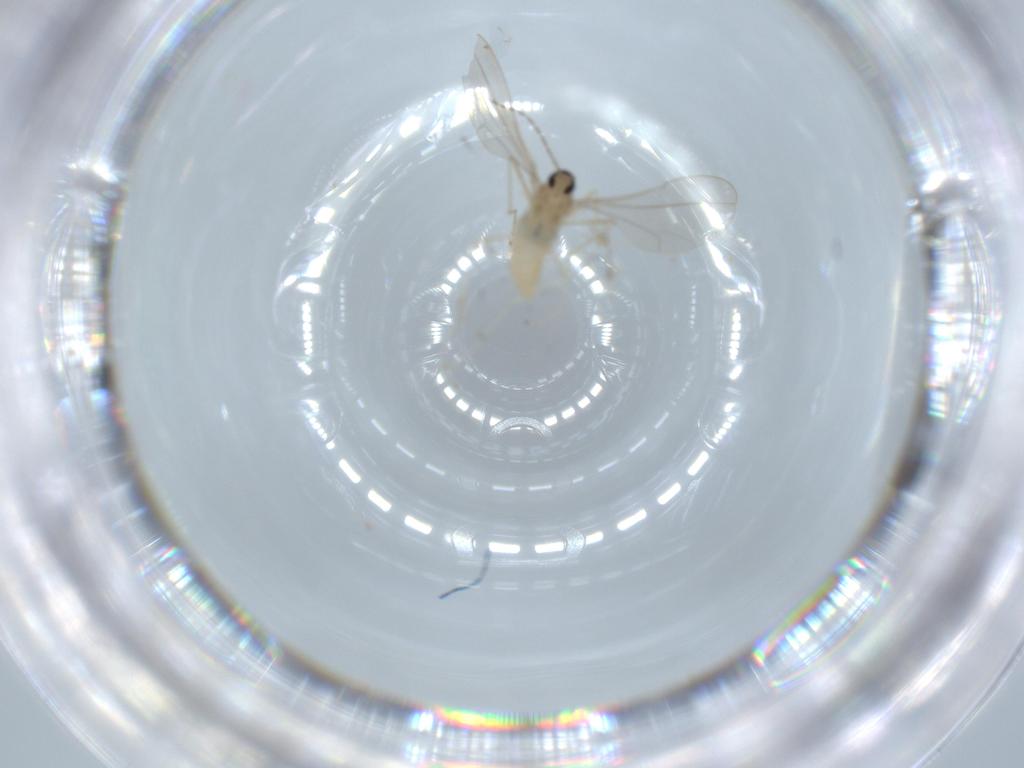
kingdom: Animalia
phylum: Arthropoda
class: Insecta
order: Diptera
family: Cecidomyiidae
